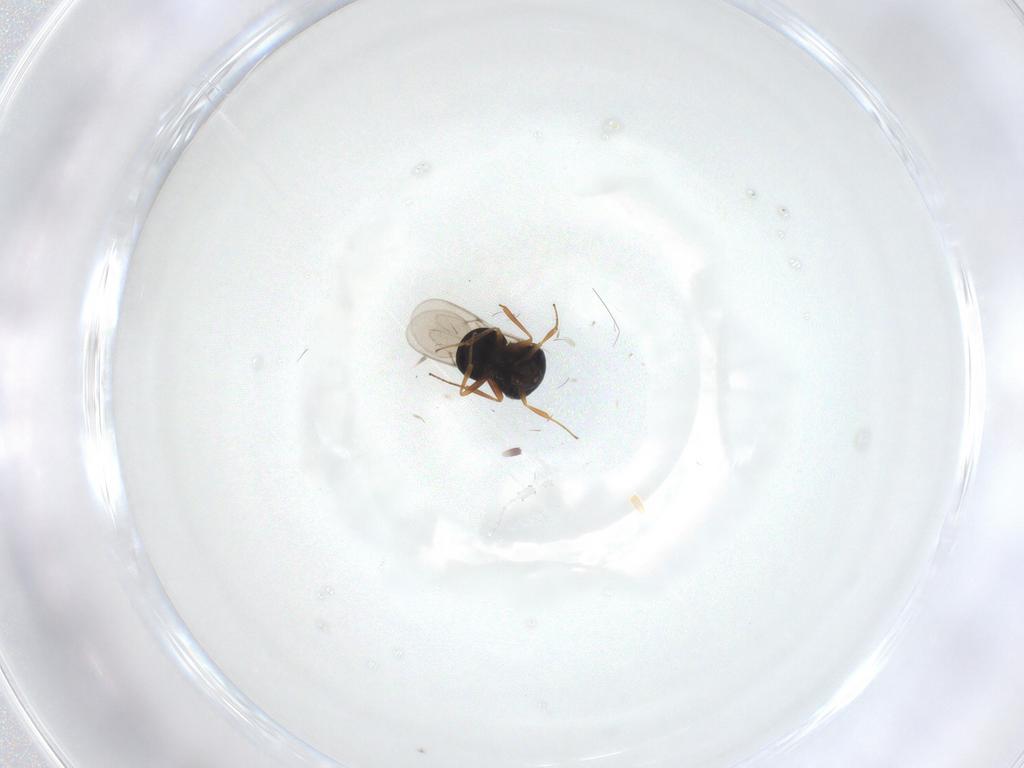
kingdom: Animalia
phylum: Arthropoda
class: Insecta
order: Hymenoptera
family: Scelionidae
